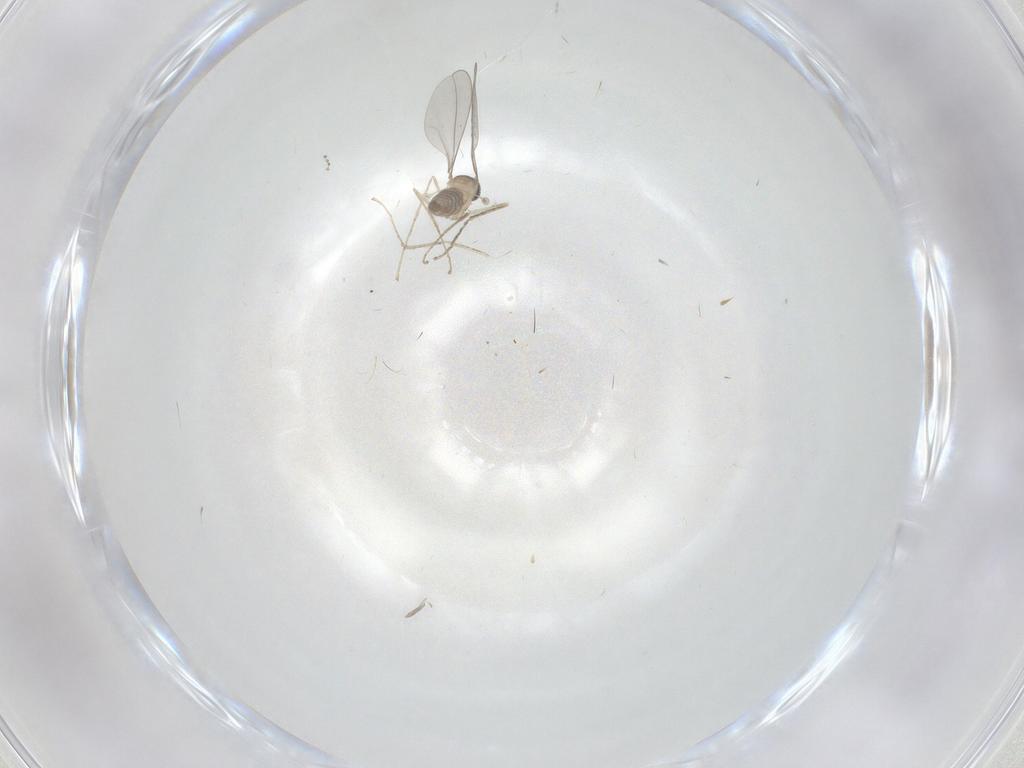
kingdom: Animalia
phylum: Arthropoda
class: Insecta
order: Diptera
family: Cecidomyiidae
